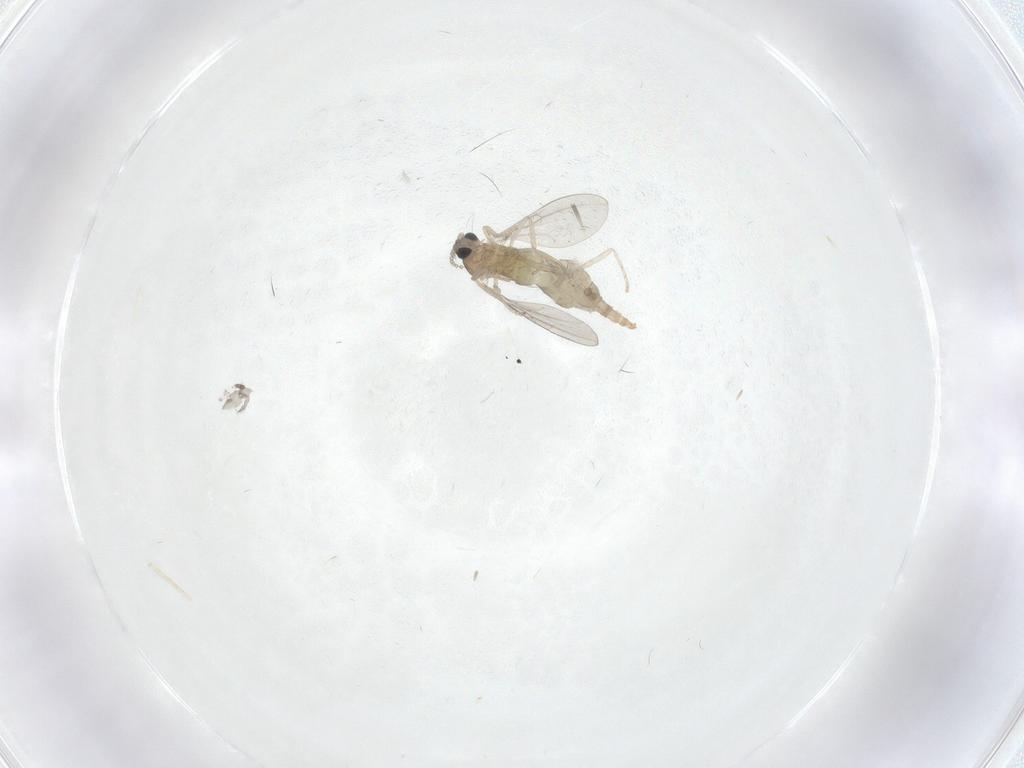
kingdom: Animalia
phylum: Arthropoda
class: Insecta
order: Diptera
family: Cecidomyiidae
